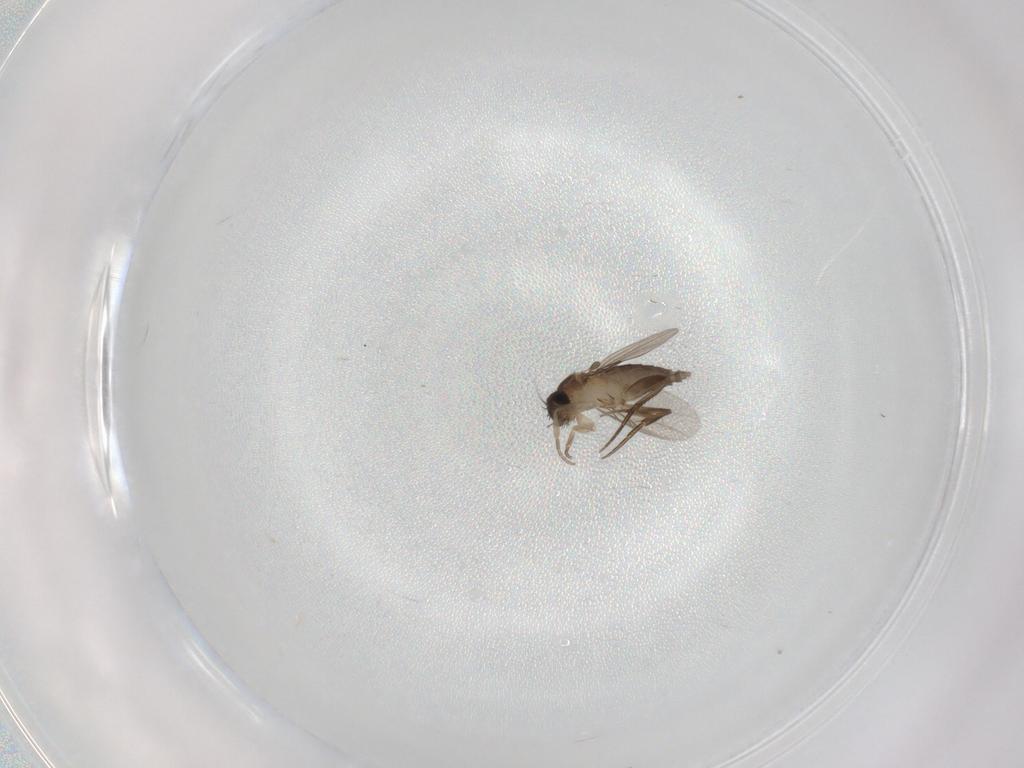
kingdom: Animalia
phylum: Arthropoda
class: Insecta
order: Diptera
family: Phoridae
